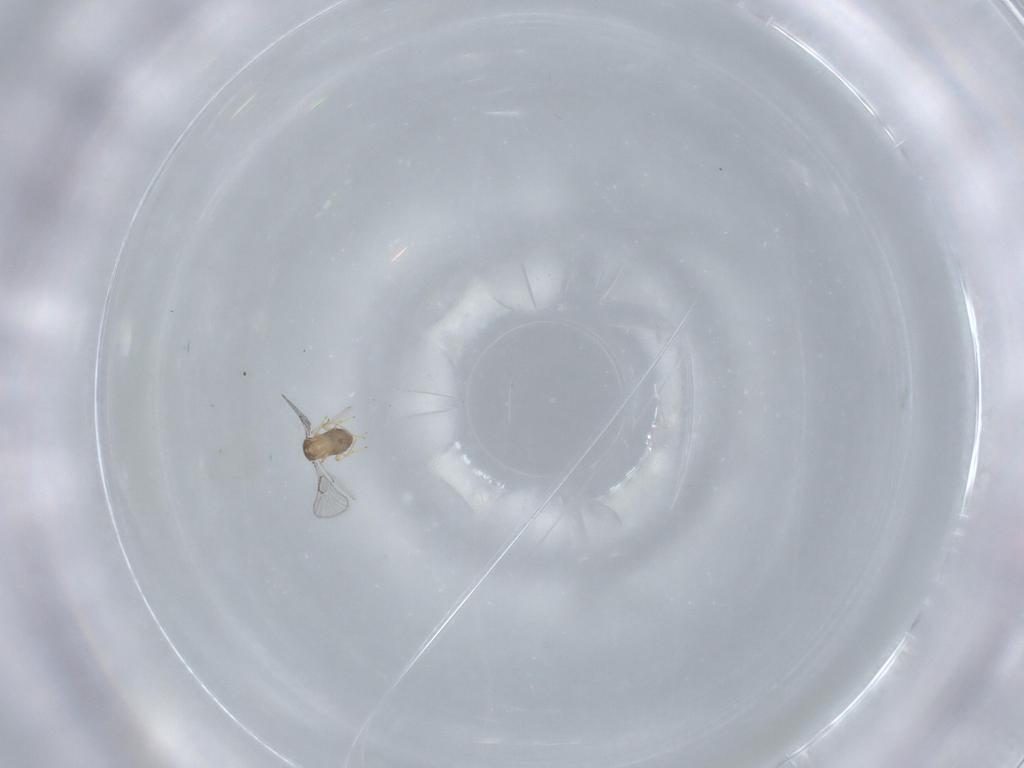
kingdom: Animalia
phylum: Arthropoda
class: Insecta
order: Hymenoptera
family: Trichogrammatidae
